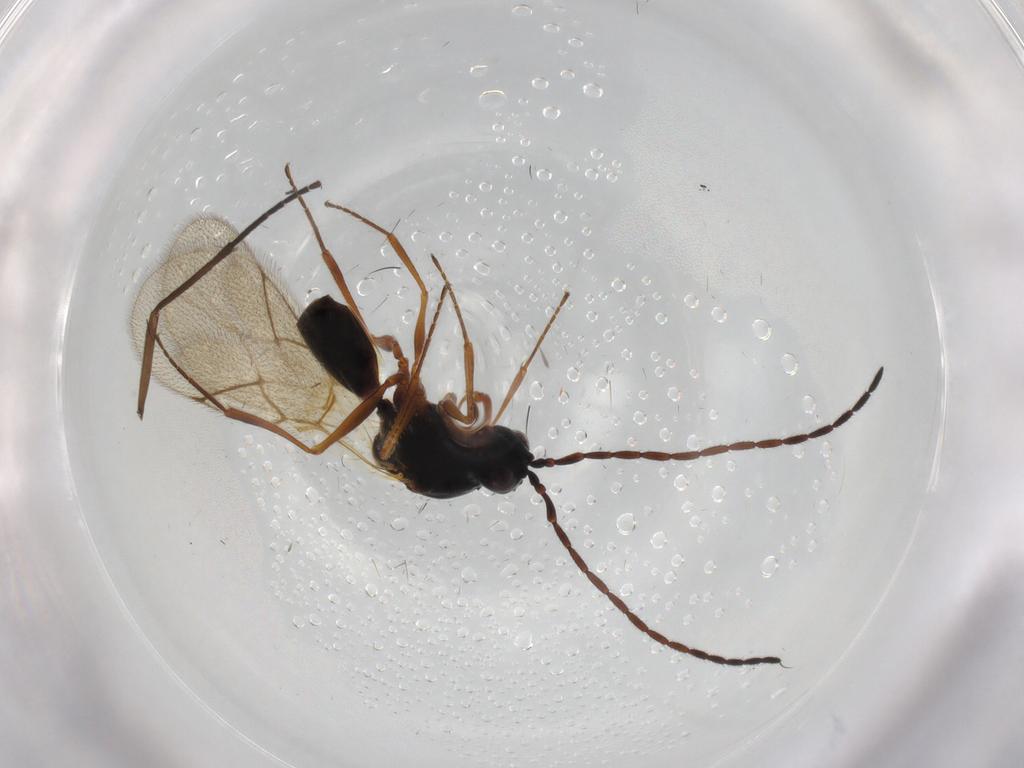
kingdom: Animalia
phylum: Arthropoda
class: Insecta
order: Hymenoptera
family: Figitidae
